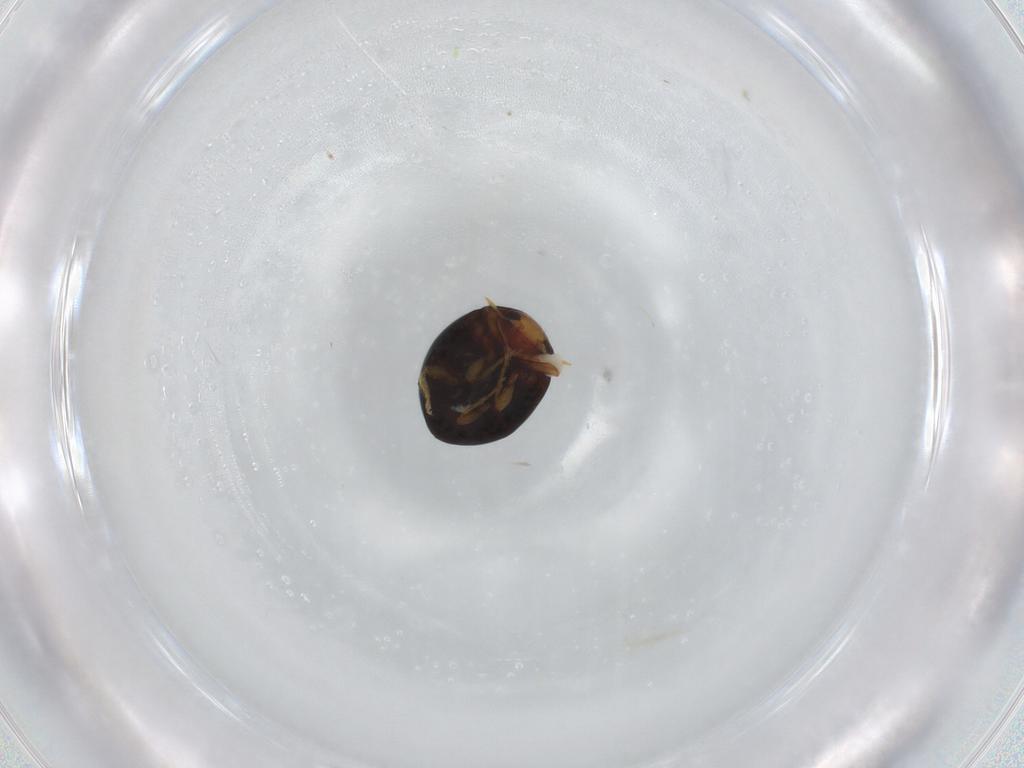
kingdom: Animalia
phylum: Arthropoda
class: Insecta
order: Coleoptera
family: Coccinellidae
